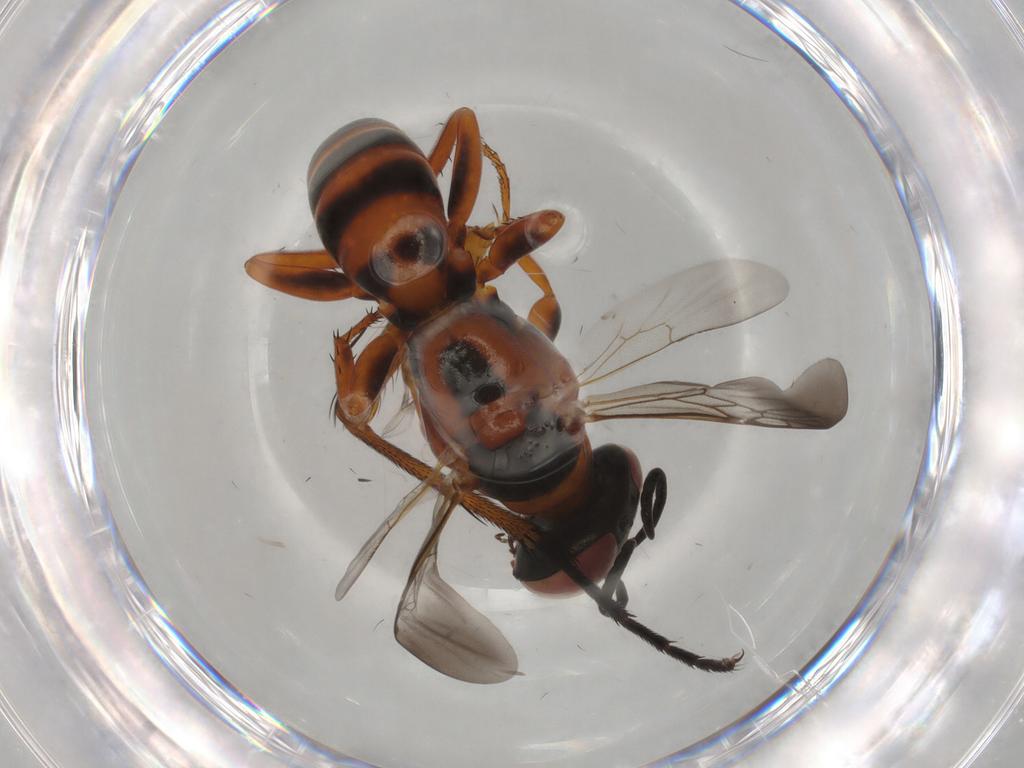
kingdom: Animalia
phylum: Arthropoda
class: Insecta
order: Hymenoptera
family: Crabronidae
